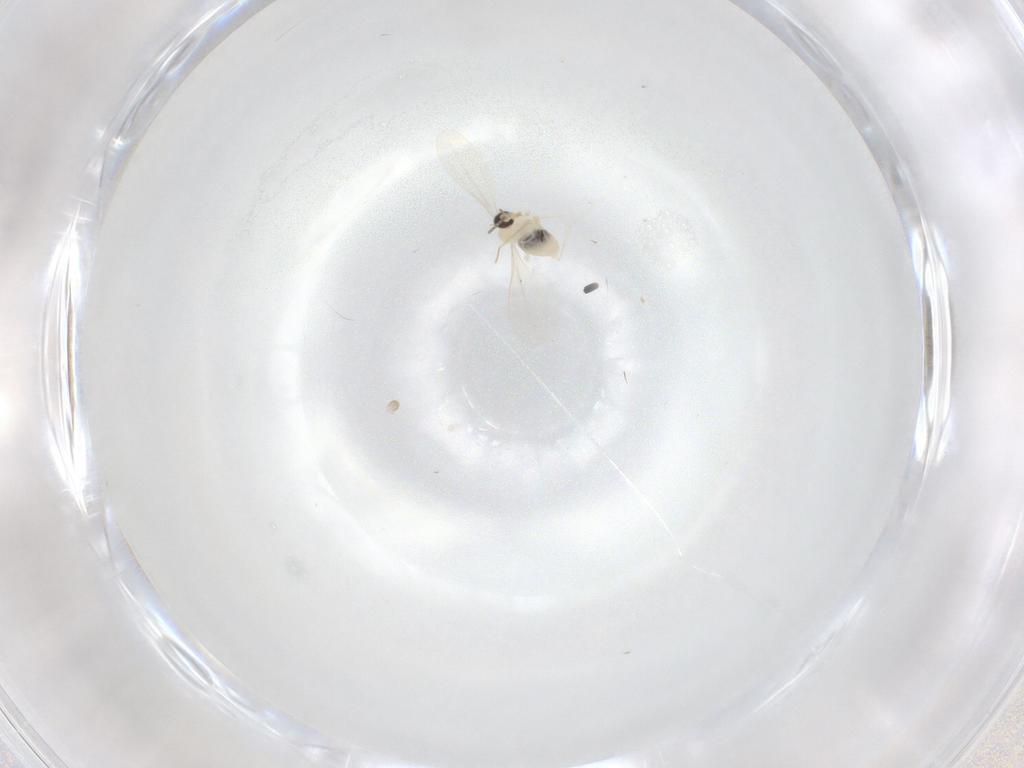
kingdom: Animalia
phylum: Arthropoda
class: Insecta
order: Diptera
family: Cecidomyiidae
